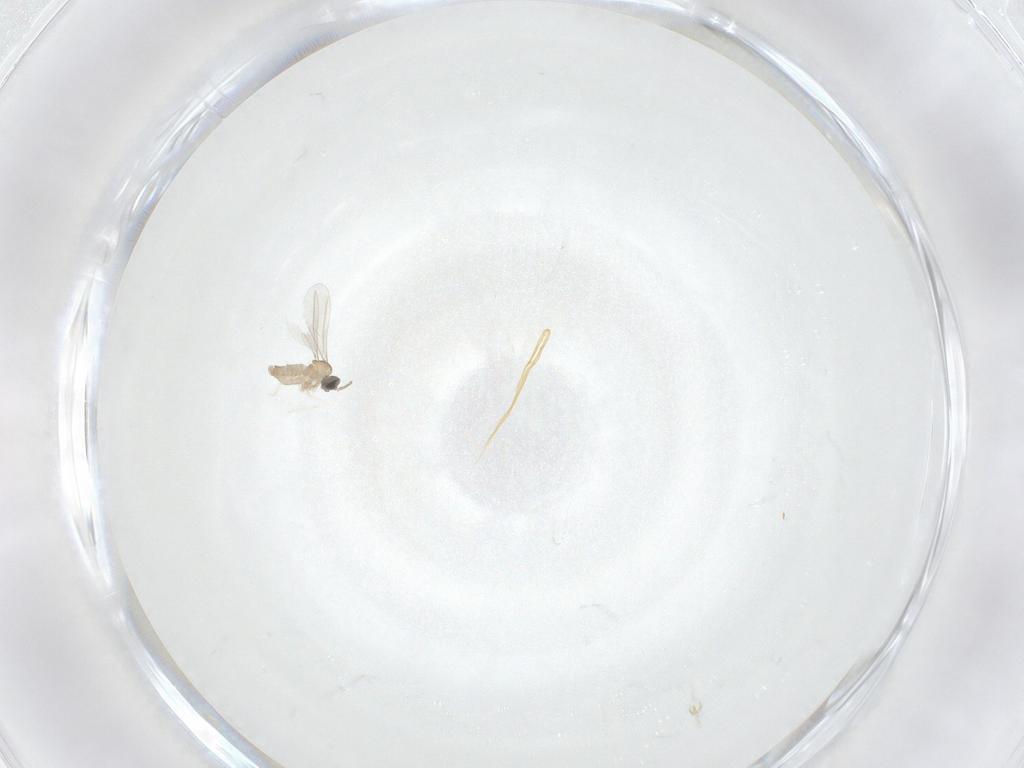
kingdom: Animalia
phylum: Arthropoda
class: Insecta
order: Diptera
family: Cecidomyiidae
